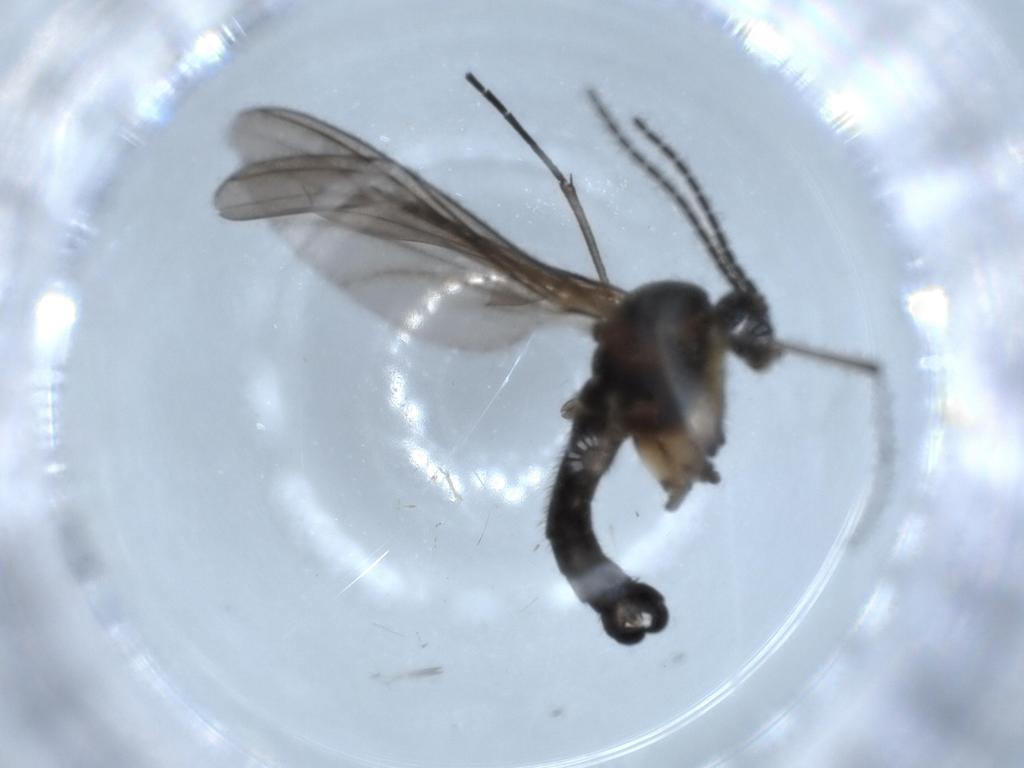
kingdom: Animalia
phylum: Arthropoda
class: Insecta
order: Diptera
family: Sciaridae
